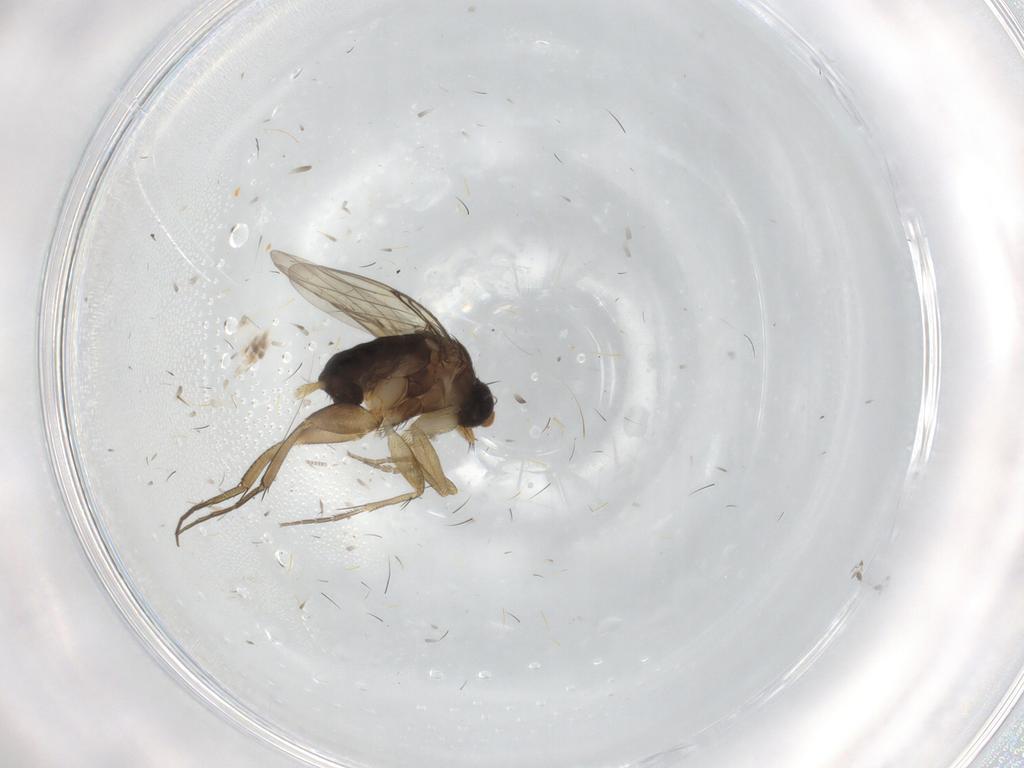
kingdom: Animalia
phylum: Arthropoda
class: Insecta
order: Diptera
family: Phoridae
